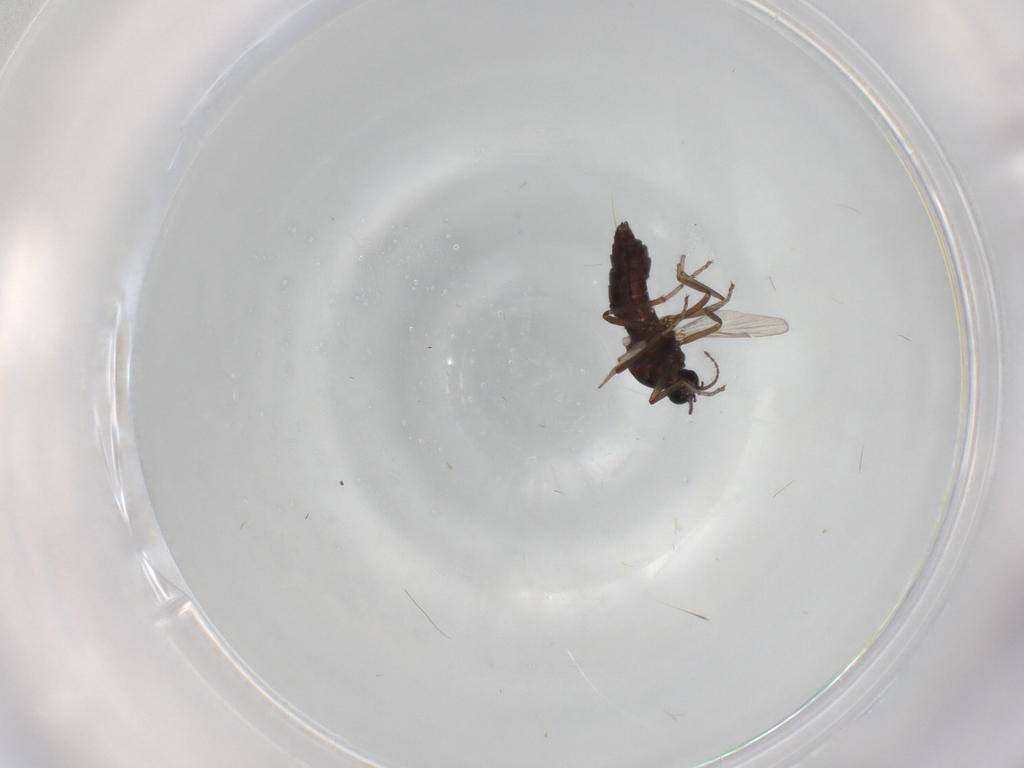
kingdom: Animalia
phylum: Arthropoda
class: Insecta
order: Diptera
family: Ceratopogonidae
